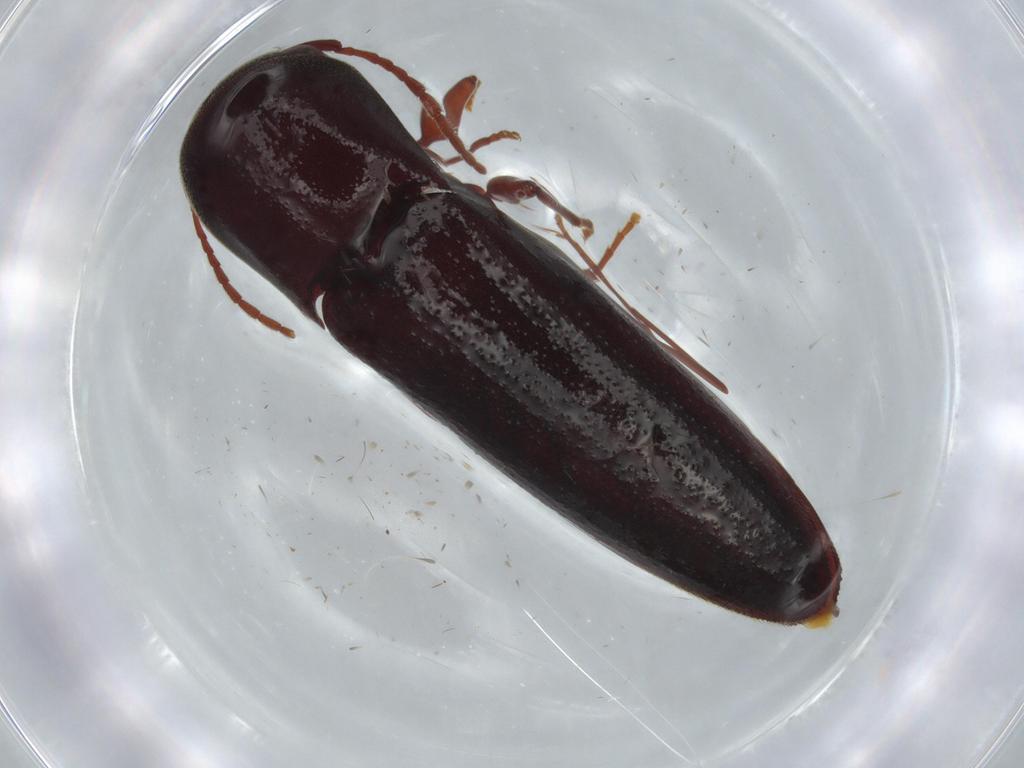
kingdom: Animalia
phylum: Arthropoda
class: Insecta
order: Coleoptera
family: Eucnemidae
